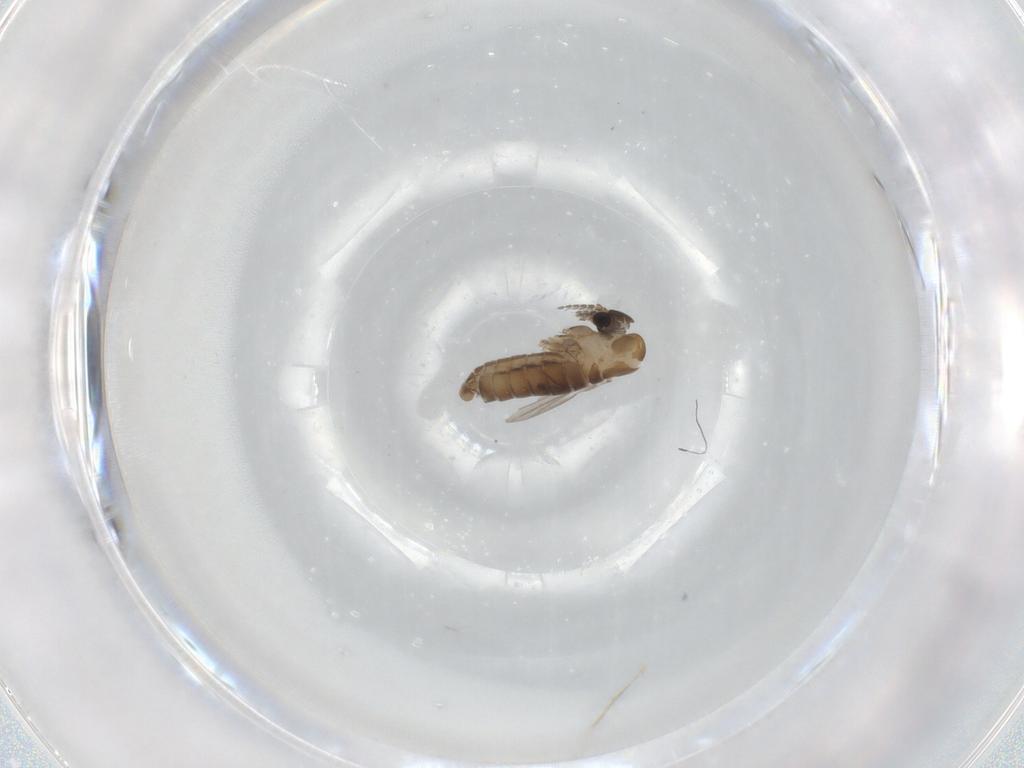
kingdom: Animalia
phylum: Arthropoda
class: Insecta
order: Diptera
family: Psychodidae
